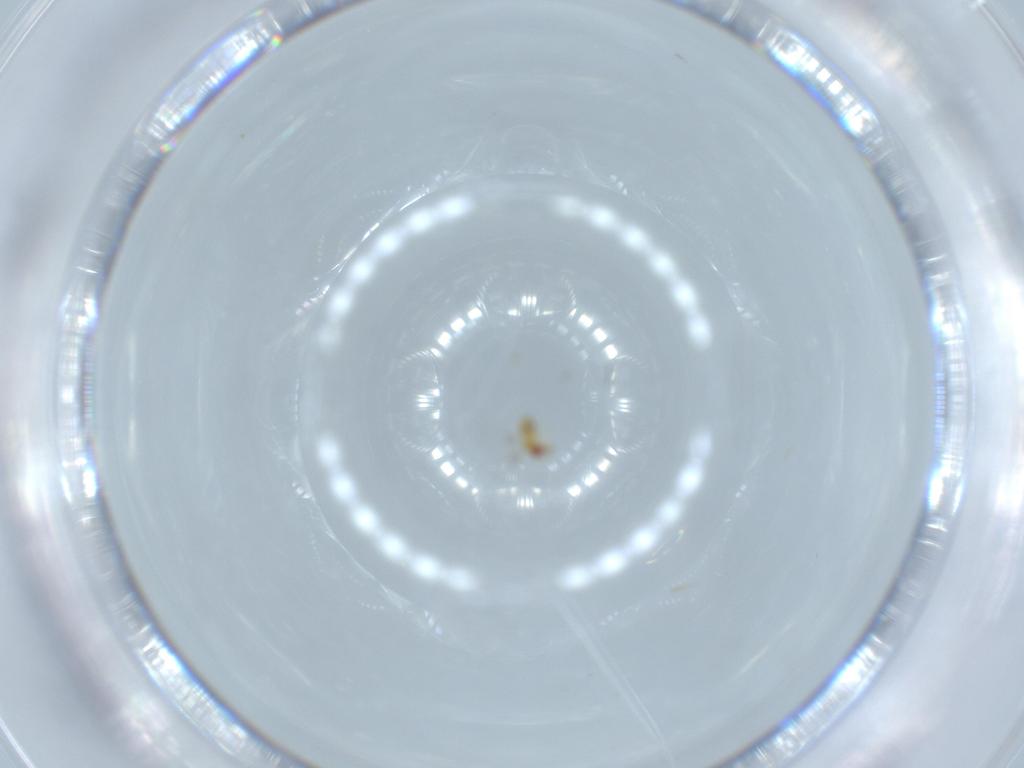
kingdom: Animalia
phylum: Arthropoda
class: Insecta
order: Hymenoptera
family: Trichogrammatidae
